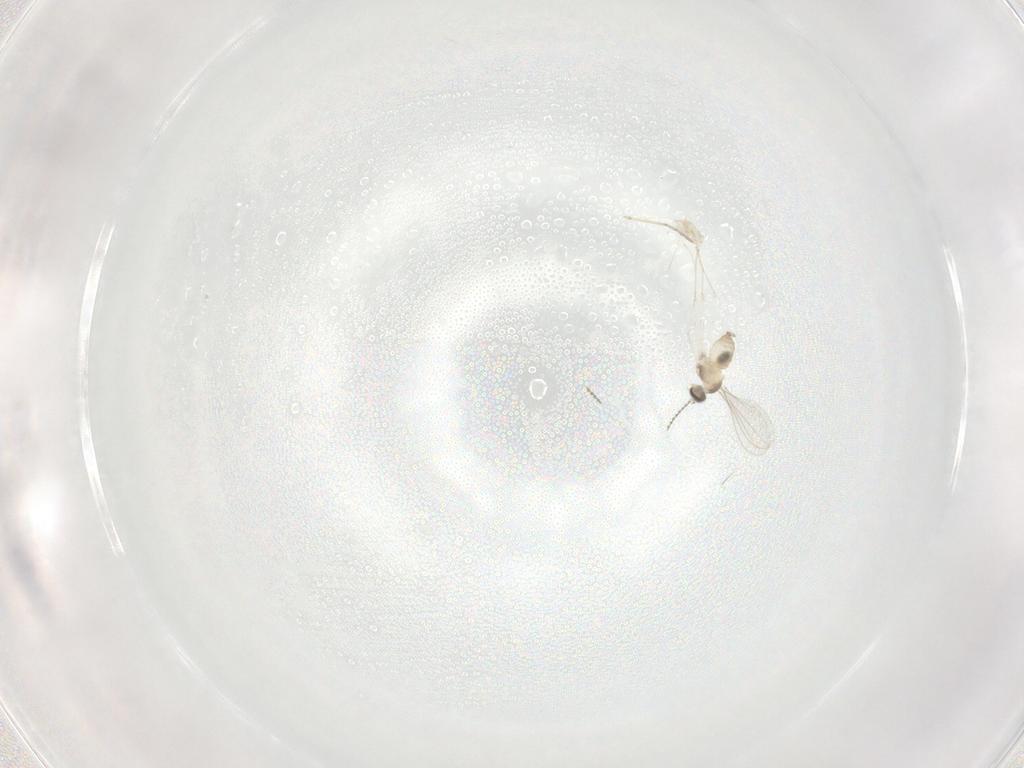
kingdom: Animalia
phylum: Arthropoda
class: Insecta
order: Diptera
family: Cecidomyiidae
